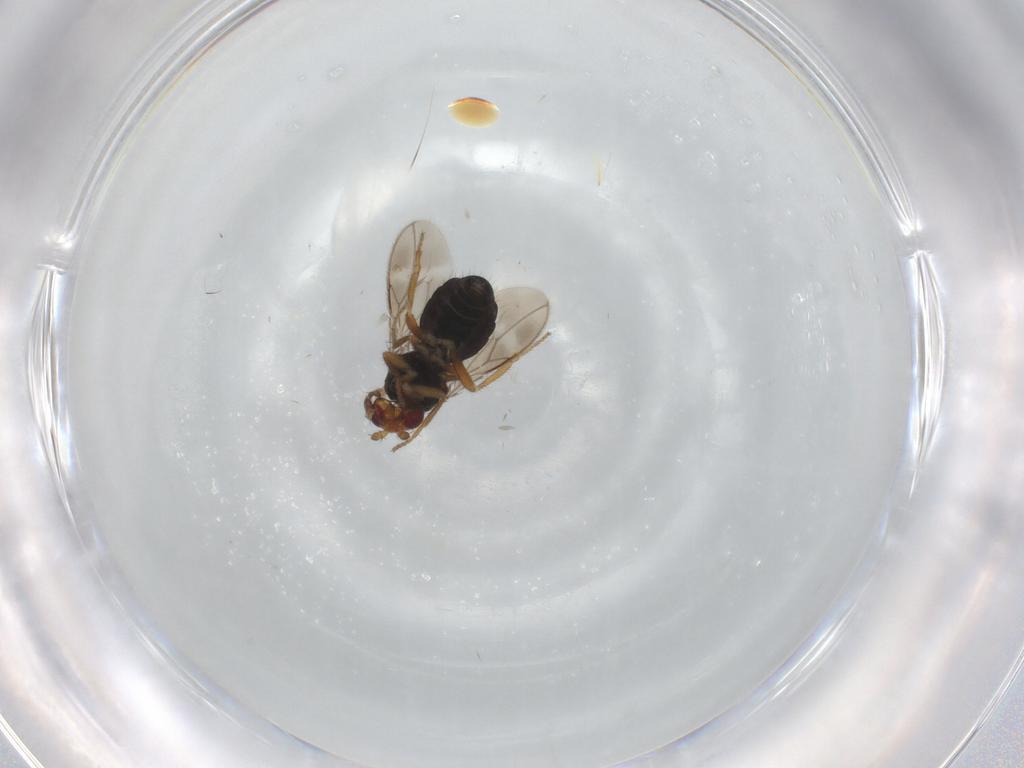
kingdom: Animalia
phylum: Arthropoda
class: Insecta
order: Diptera
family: Sphaeroceridae
